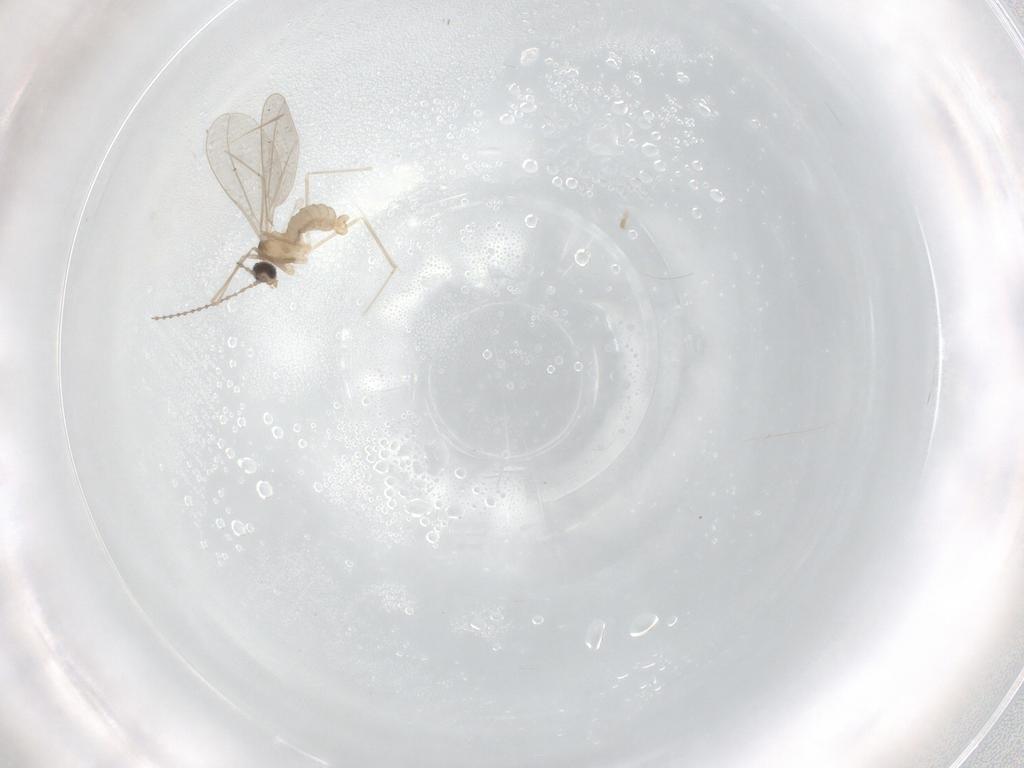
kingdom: Animalia
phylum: Arthropoda
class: Insecta
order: Diptera
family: Cecidomyiidae
